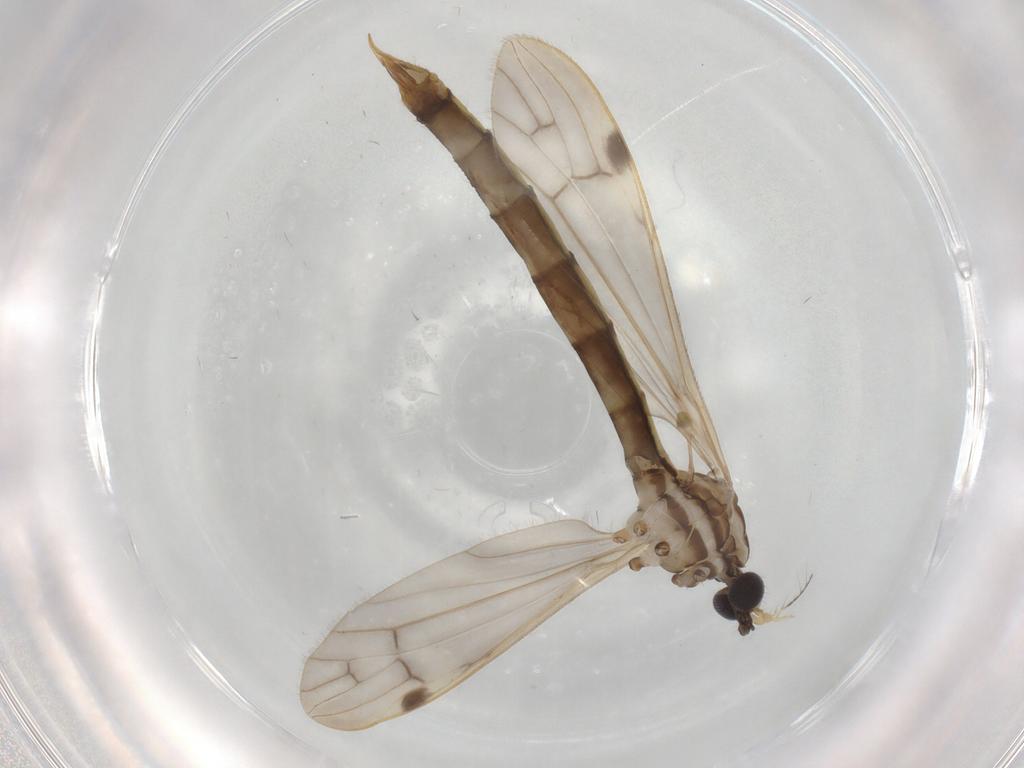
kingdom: Animalia
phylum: Arthropoda
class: Insecta
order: Diptera
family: Limoniidae
